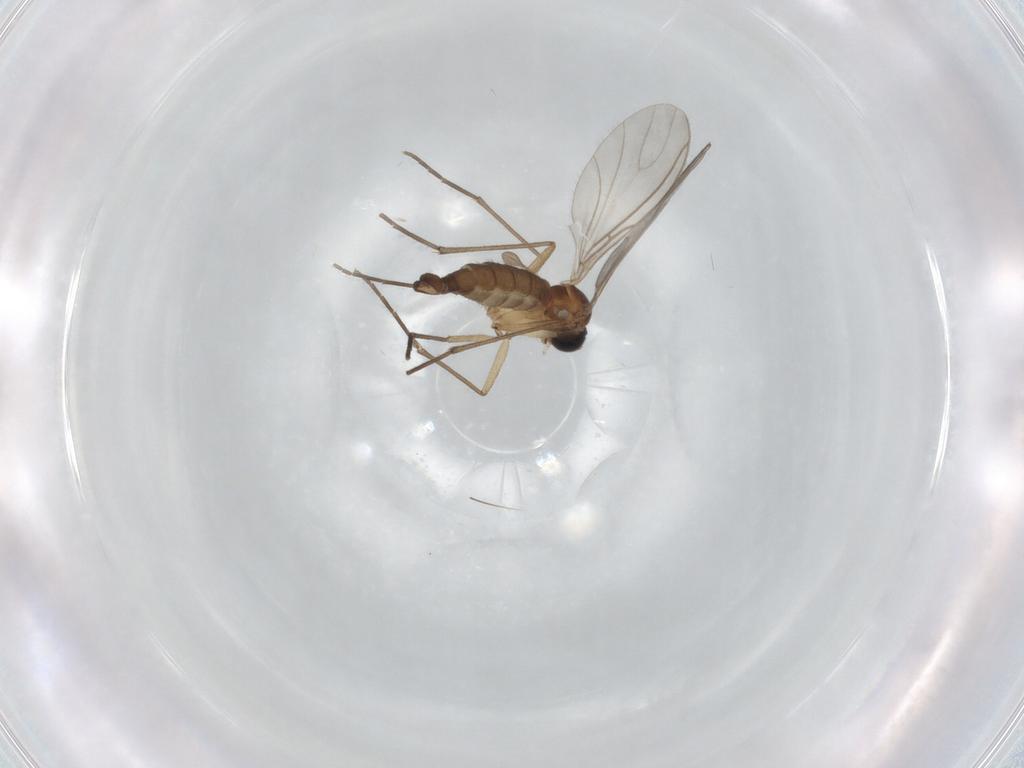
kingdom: Animalia
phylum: Arthropoda
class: Insecta
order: Diptera
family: Sciaridae
